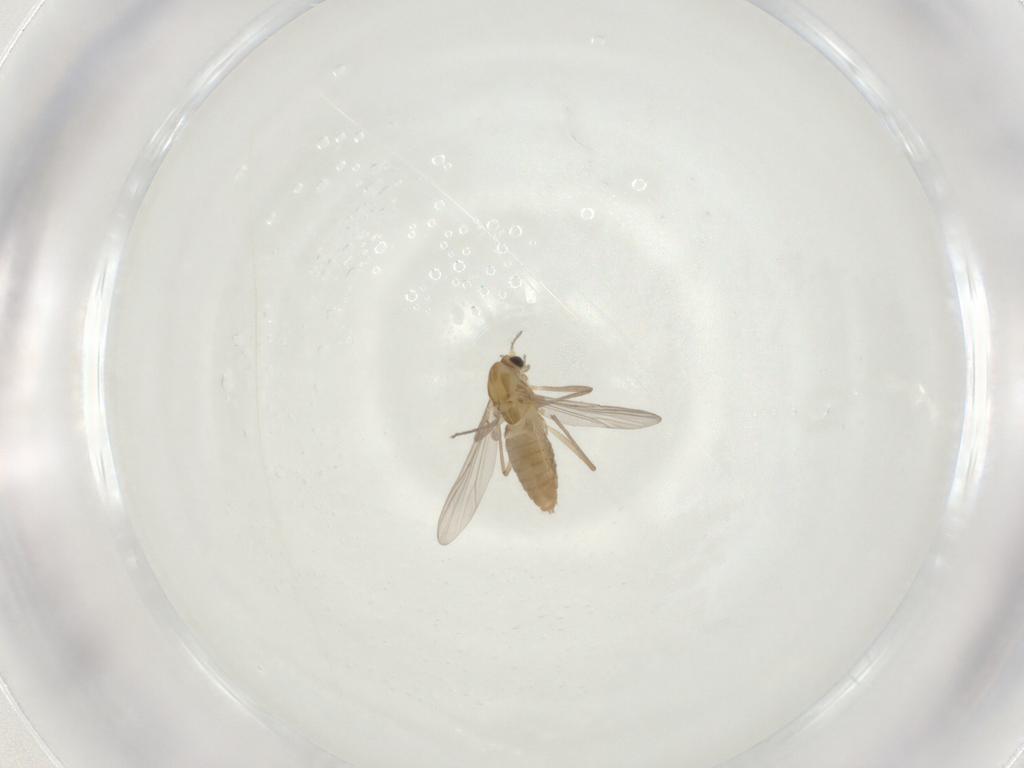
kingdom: Animalia
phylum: Arthropoda
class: Insecta
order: Diptera
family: Chironomidae
